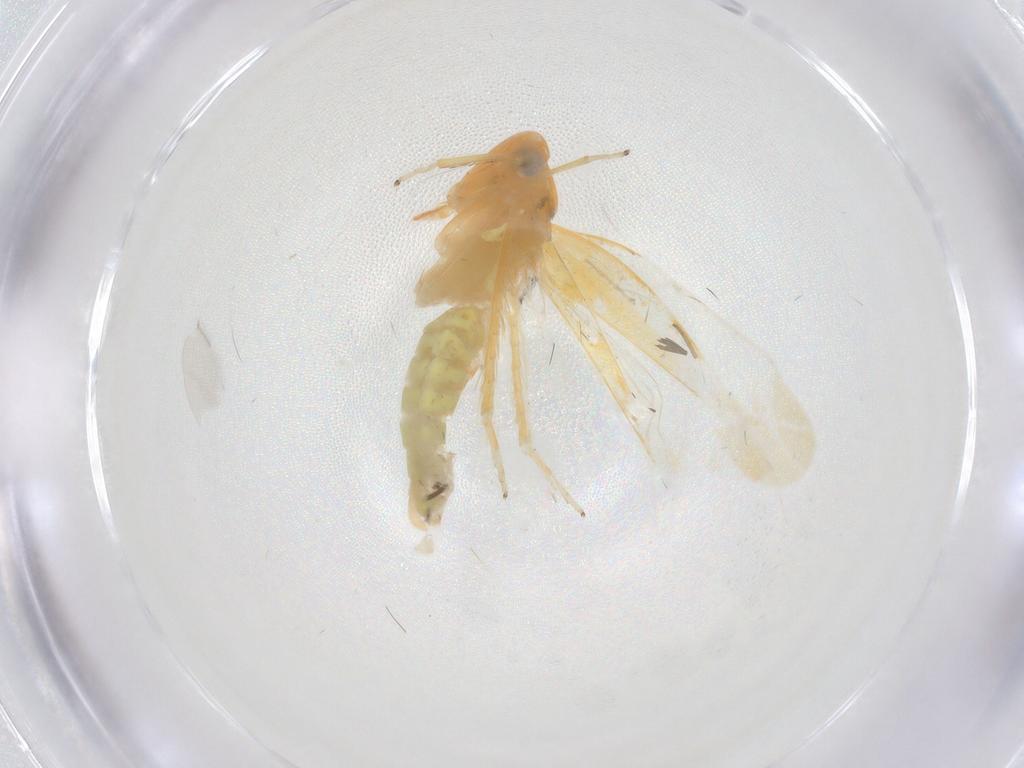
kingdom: Animalia
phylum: Arthropoda
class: Insecta
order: Hemiptera
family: Cicadellidae
